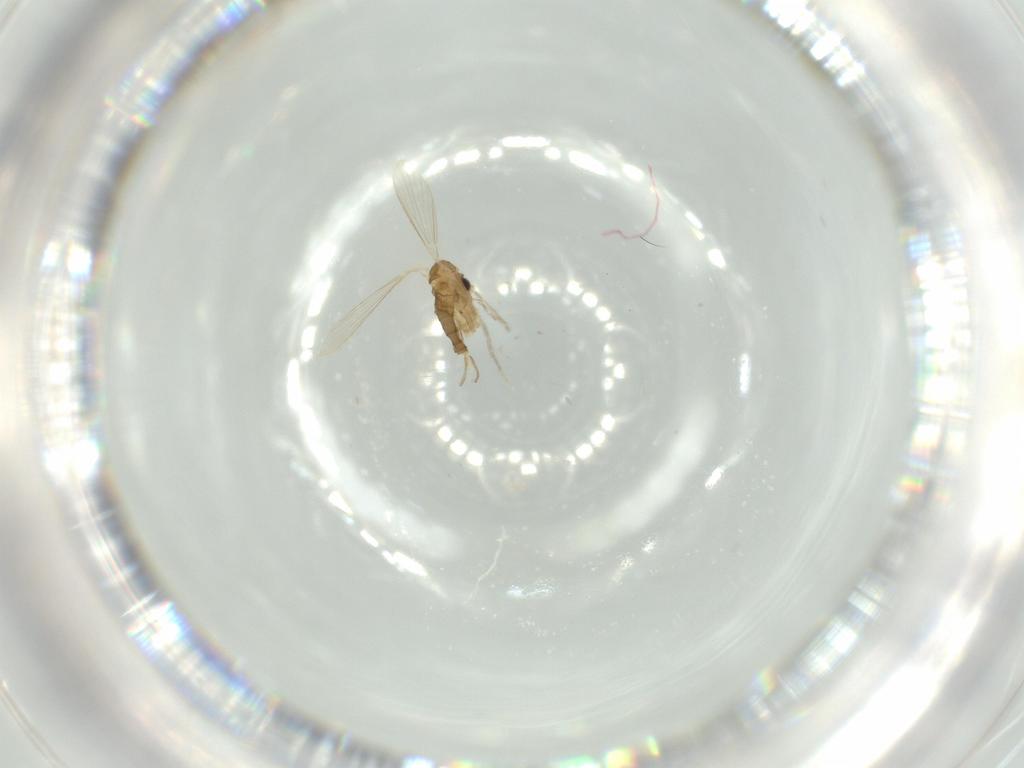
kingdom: Animalia
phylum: Arthropoda
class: Insecta
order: Diptera
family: Psychodidae
